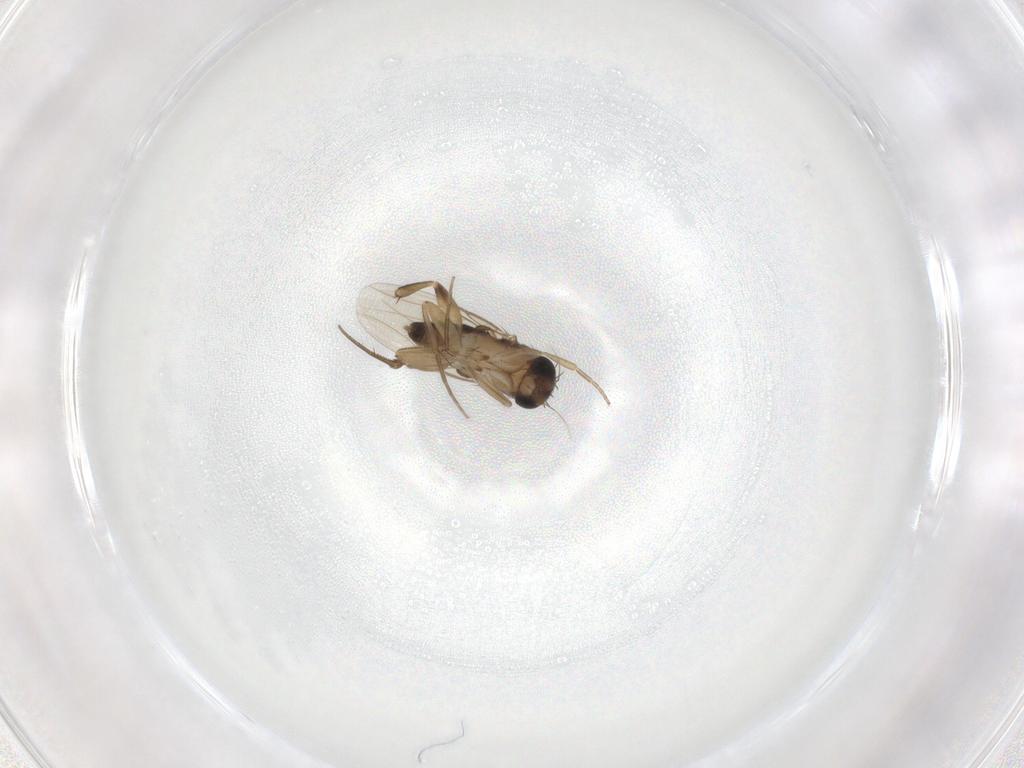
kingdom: Animalia
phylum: Arthropoda
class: Insecta
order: Diptera
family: Phoridae
